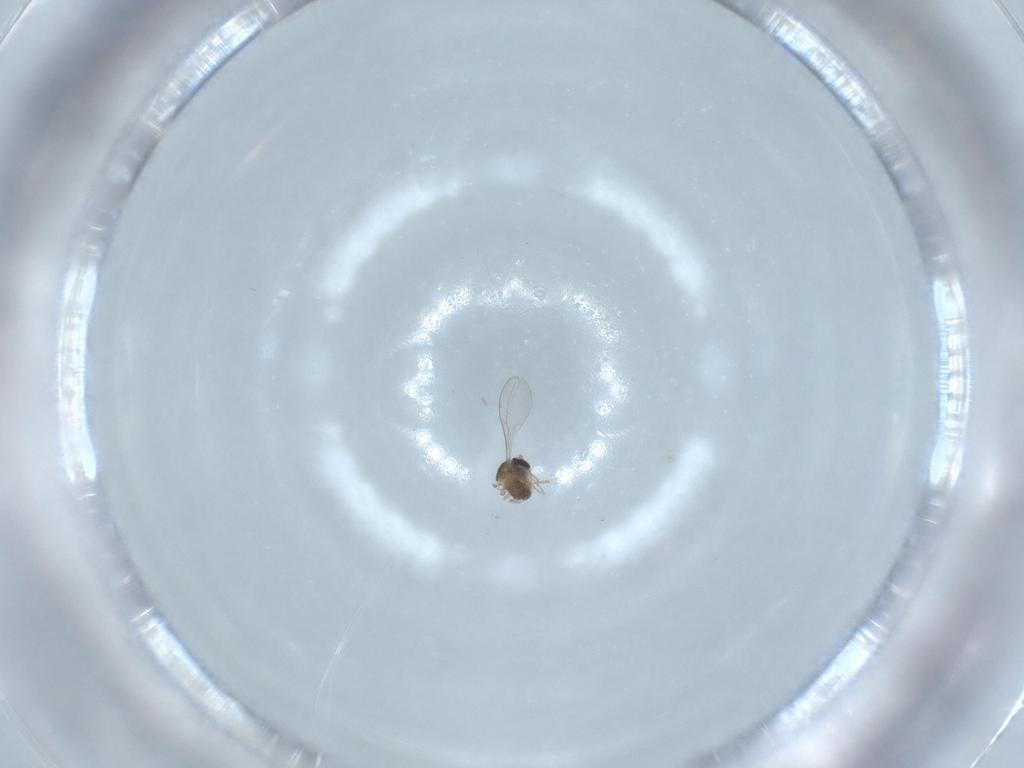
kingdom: Animalia
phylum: Arthropoda
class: Insecta
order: Diptera
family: Cecidomyiidae
